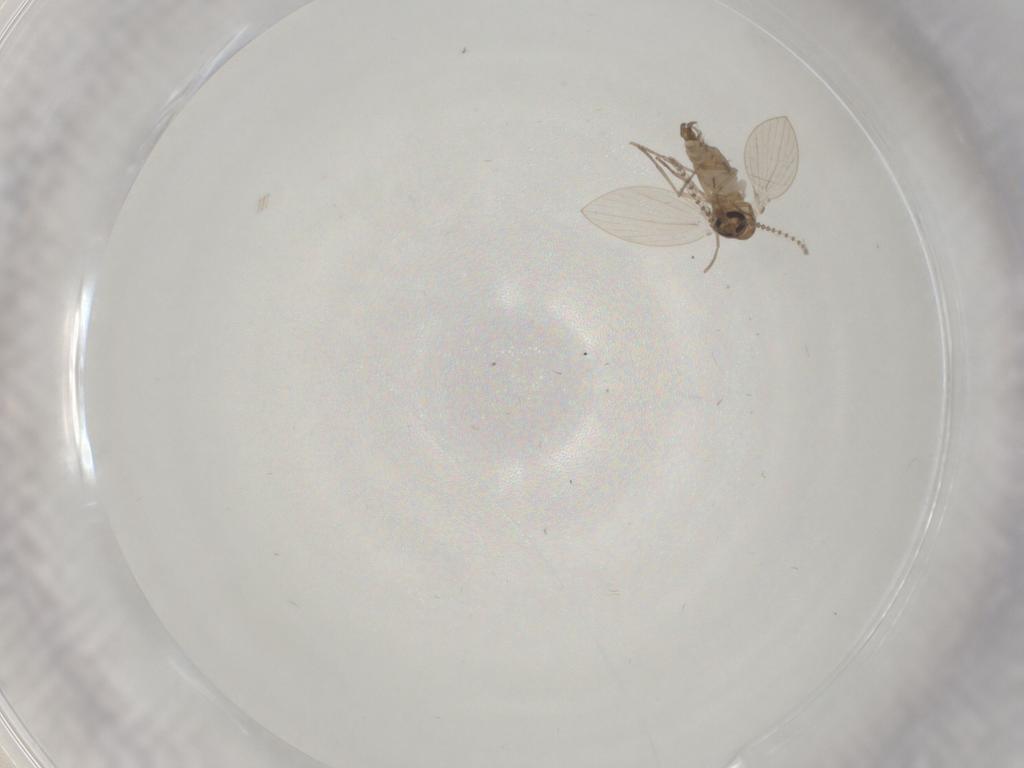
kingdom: Animalia
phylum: Arthropoda
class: Insecta
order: Diptera
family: Psychodidae
